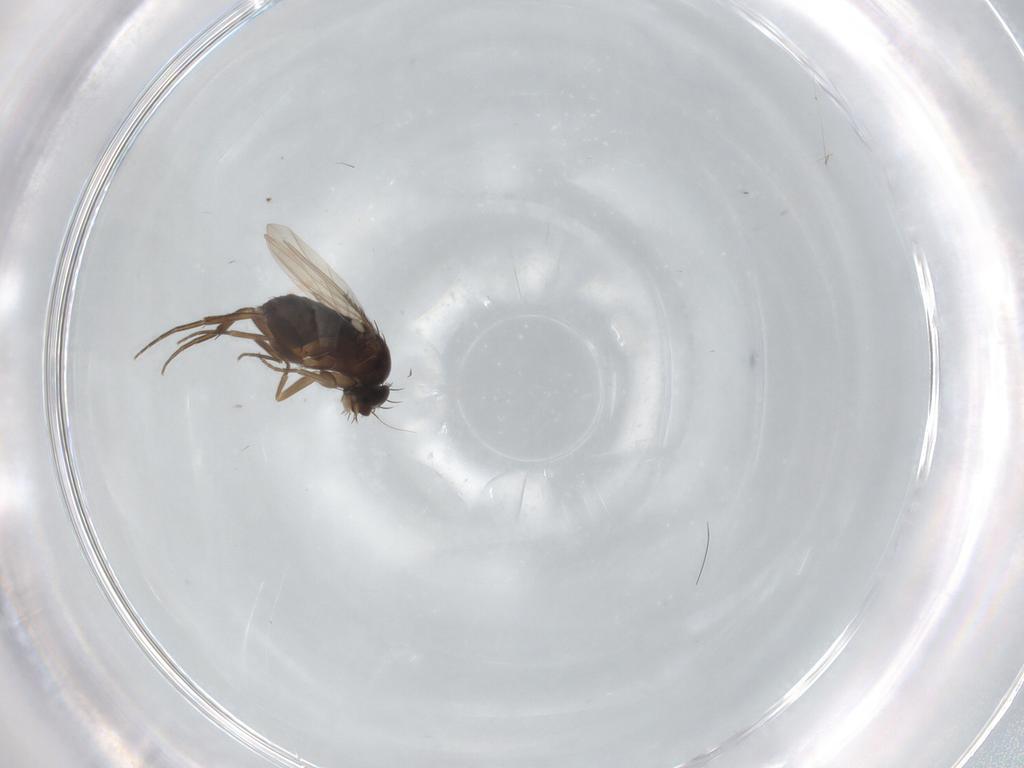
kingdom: Animalia
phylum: Arthropoda
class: Insecta
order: Diptera
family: Phoridae
